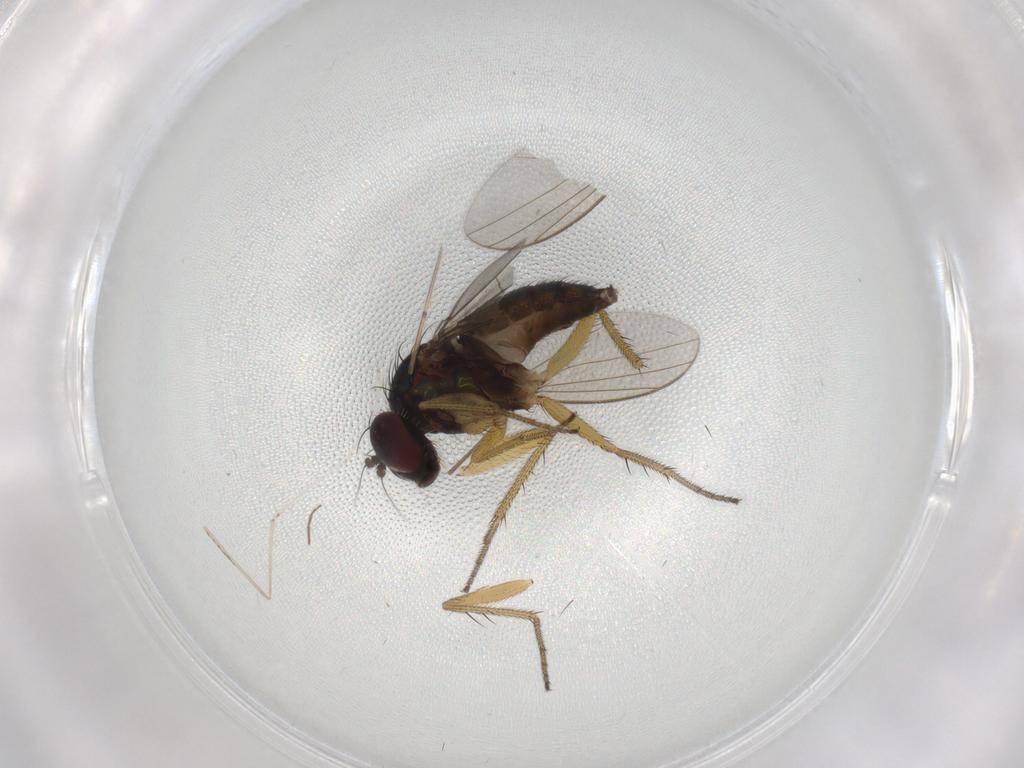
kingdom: Animalia
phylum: Arthropoda
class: Insecta
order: Diptera
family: Chironomidae
